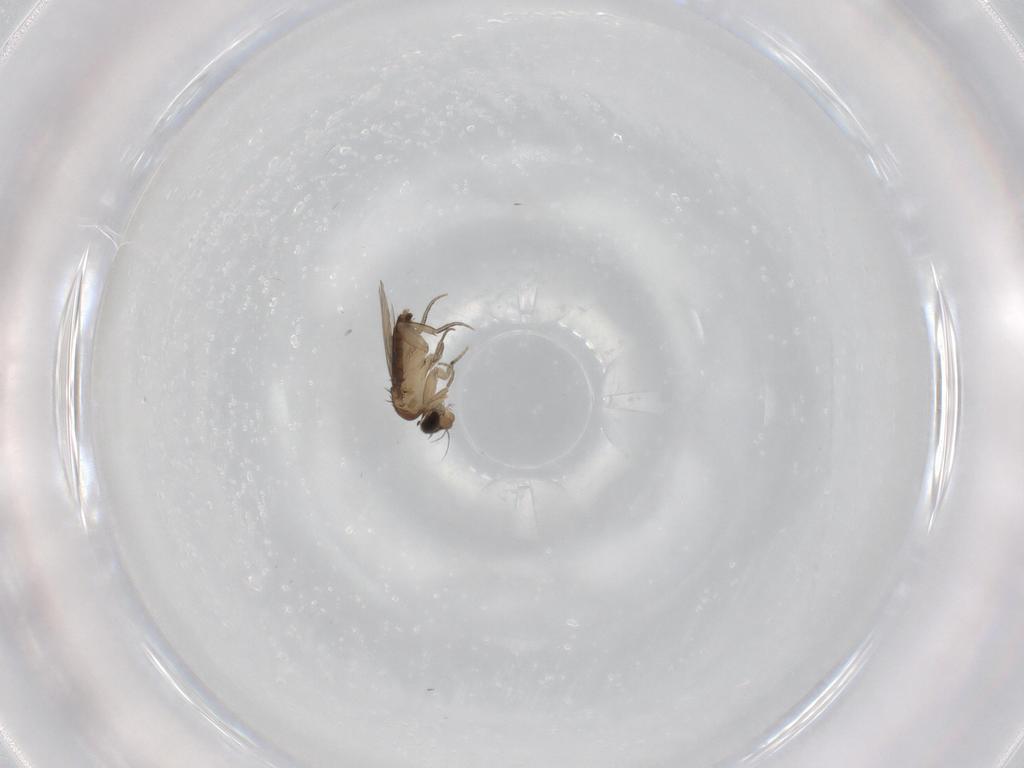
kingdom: Animalia
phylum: Arthropoda
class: Insecta
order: Diptera
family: Phoridae
